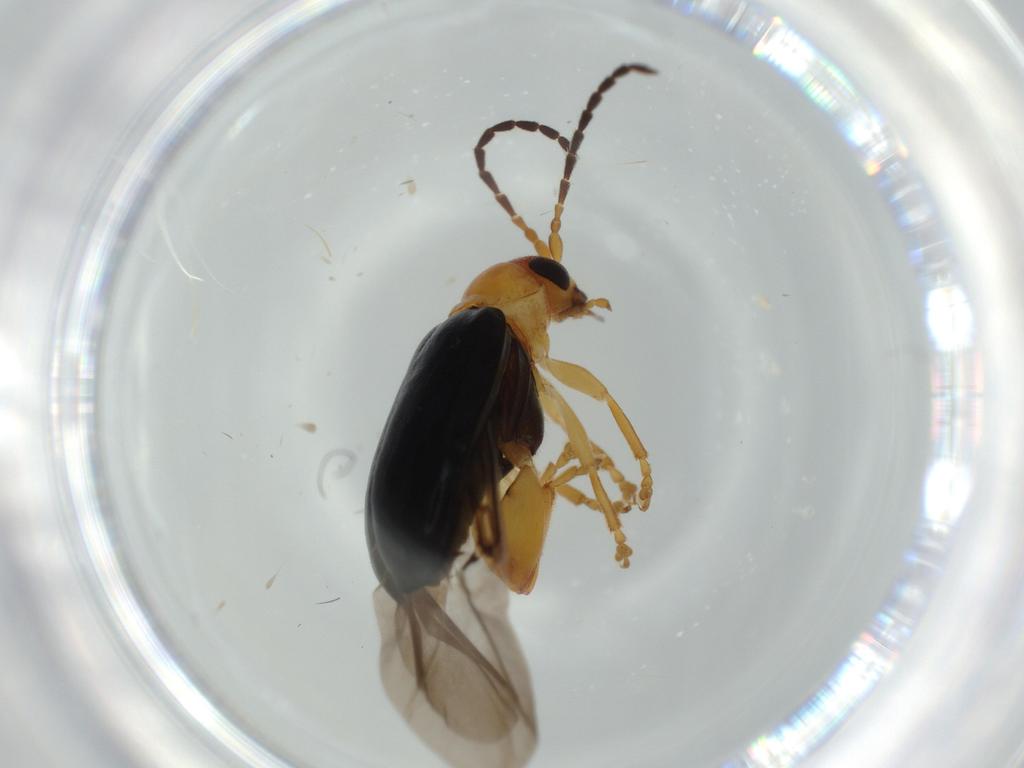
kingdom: Animalia
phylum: Arthropoda
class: Insecta
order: Coleoptera
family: Chrysomelidae
